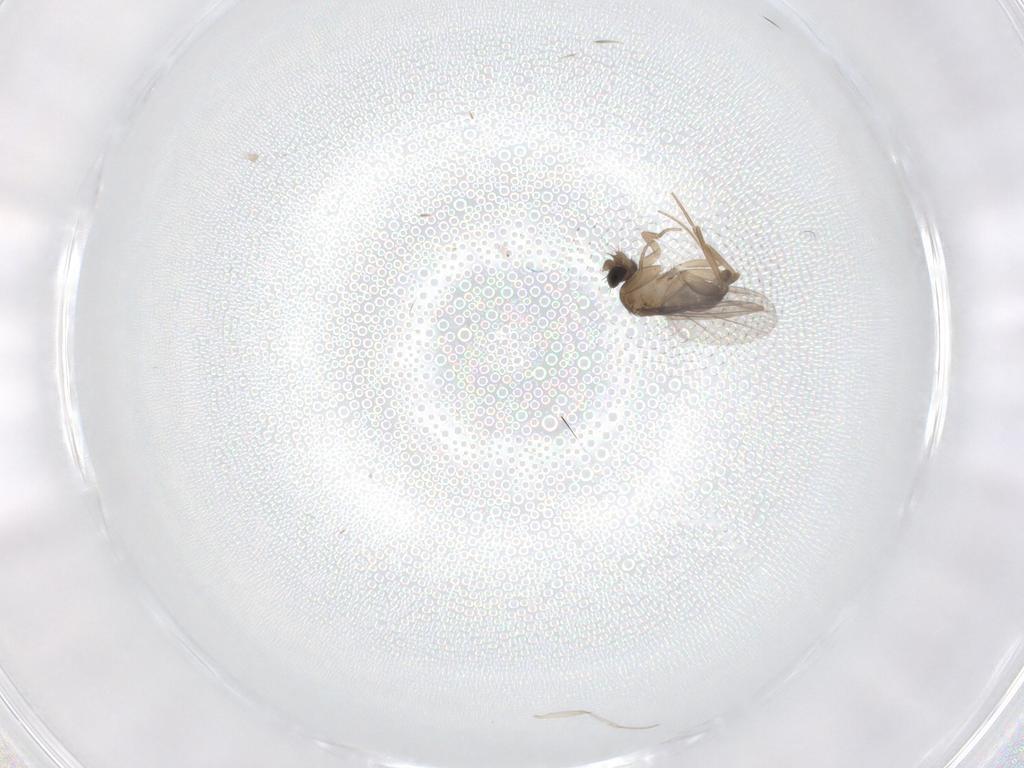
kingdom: Animalia
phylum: Arthropoda
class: Insecta
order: Diptera
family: Phoridae
